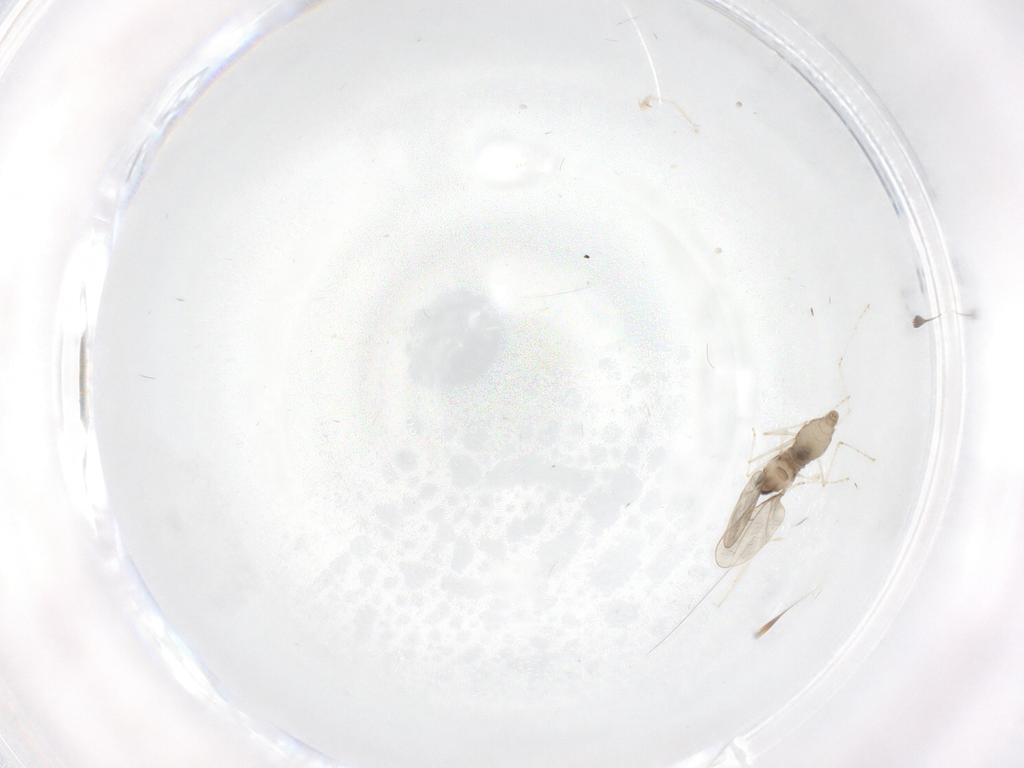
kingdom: Animalia
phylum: Arthropoda
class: Insecta
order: Diptera
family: Cecidomyiidae
